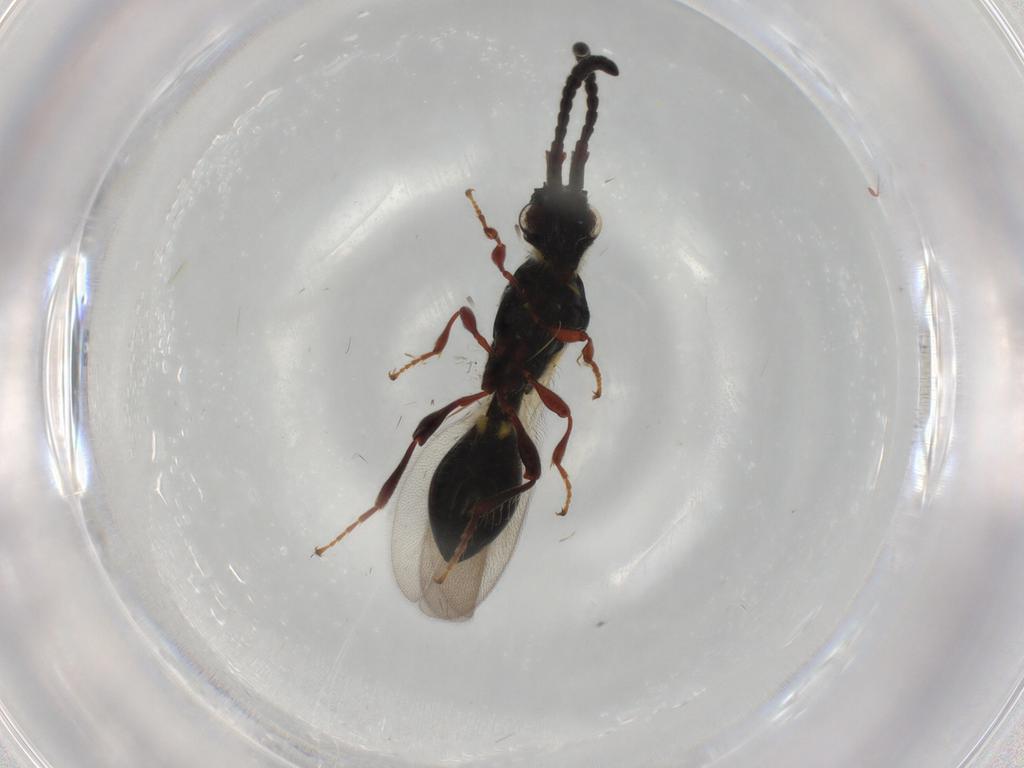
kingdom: Animalia
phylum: Arthropoda
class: Insecta
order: Hymenoptera
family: Diapriidae
